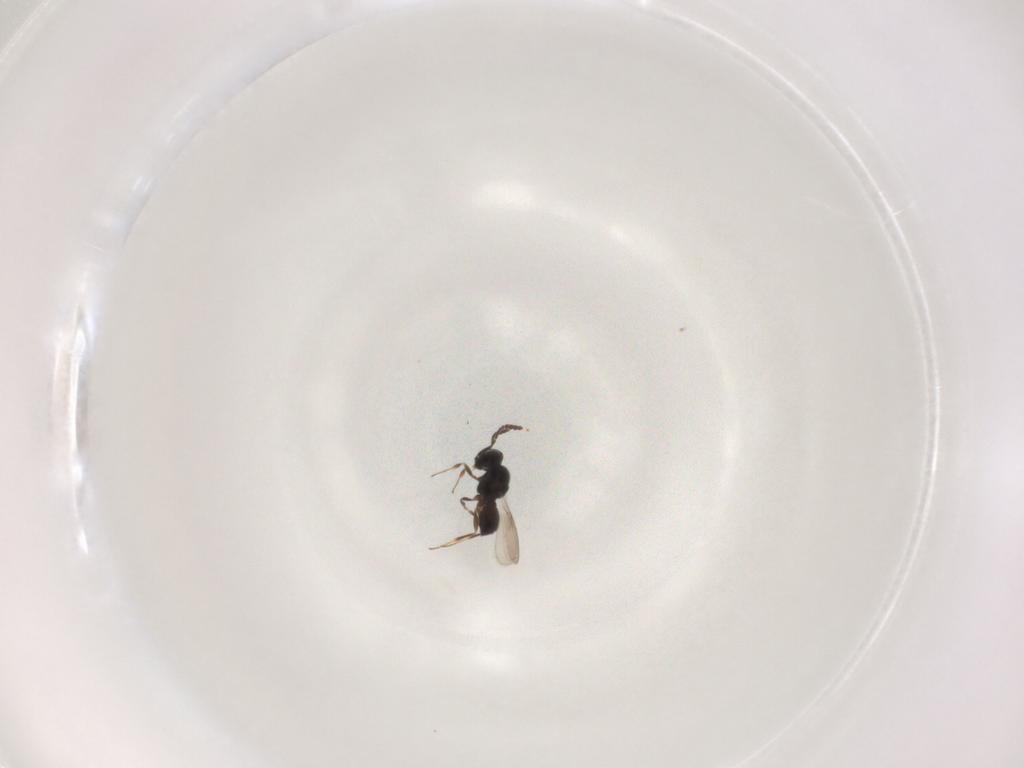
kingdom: Animalia
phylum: Arthropoda
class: Insecta
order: Hymenoptera
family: Scelionidae
